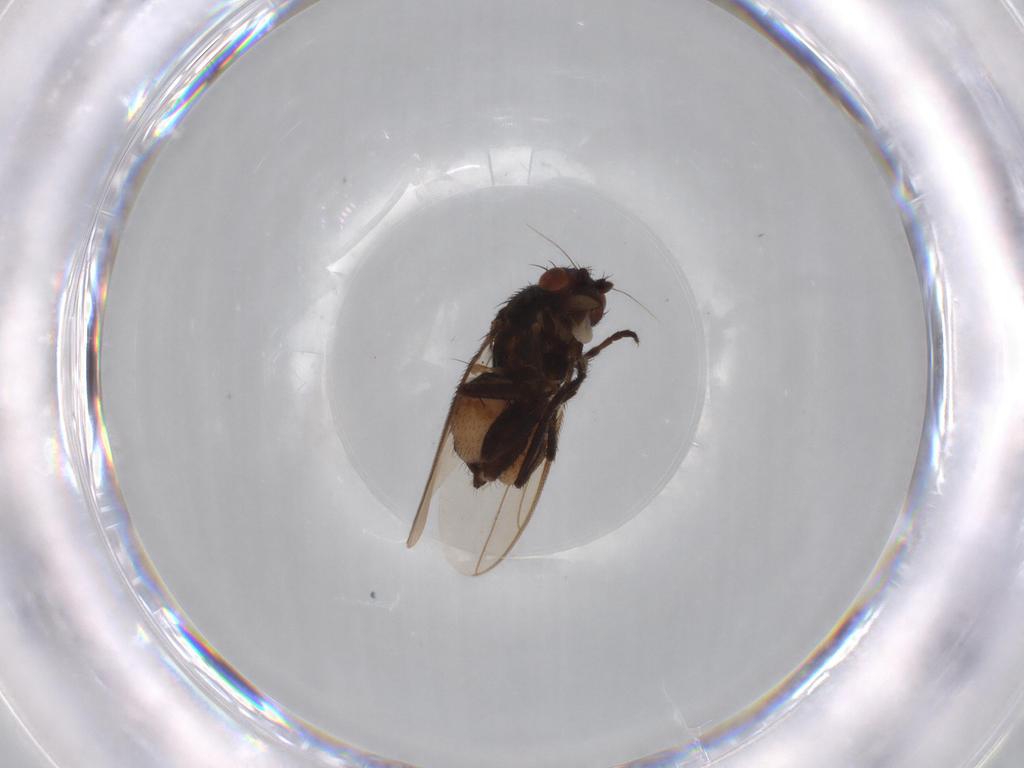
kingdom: Animalia
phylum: Arthropoda
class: Insecta
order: Diptera
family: Sphaeroceridae
